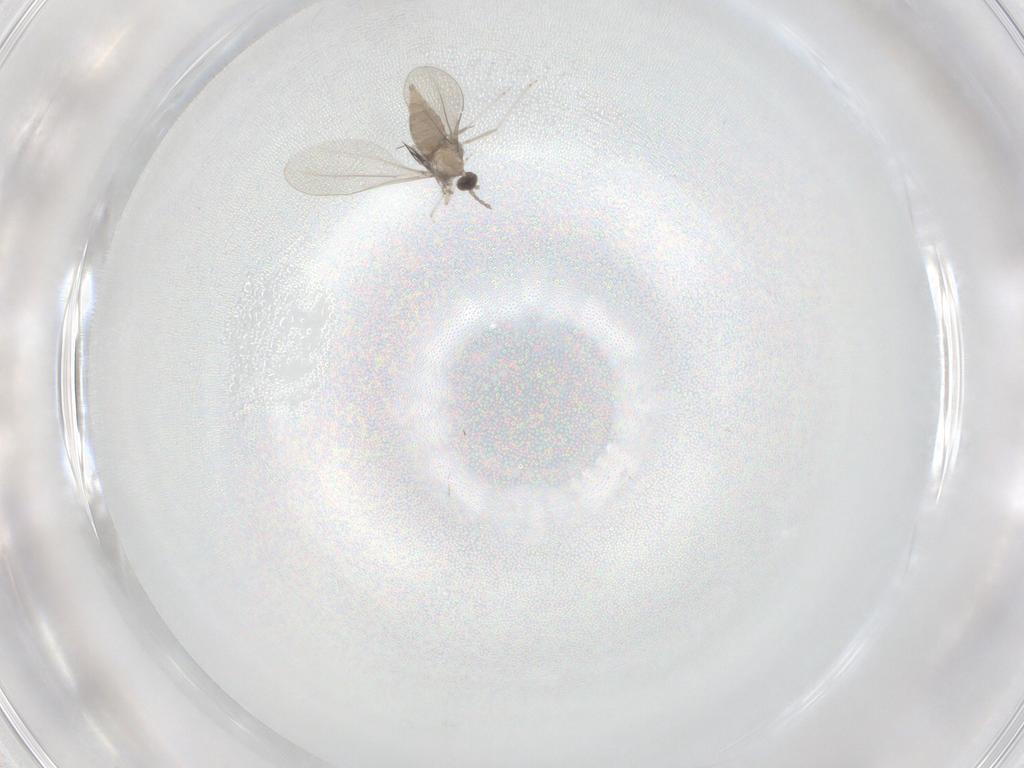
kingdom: Animalia
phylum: Arthropoda
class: Insecta
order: Diptera
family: Cecidomyiidae
